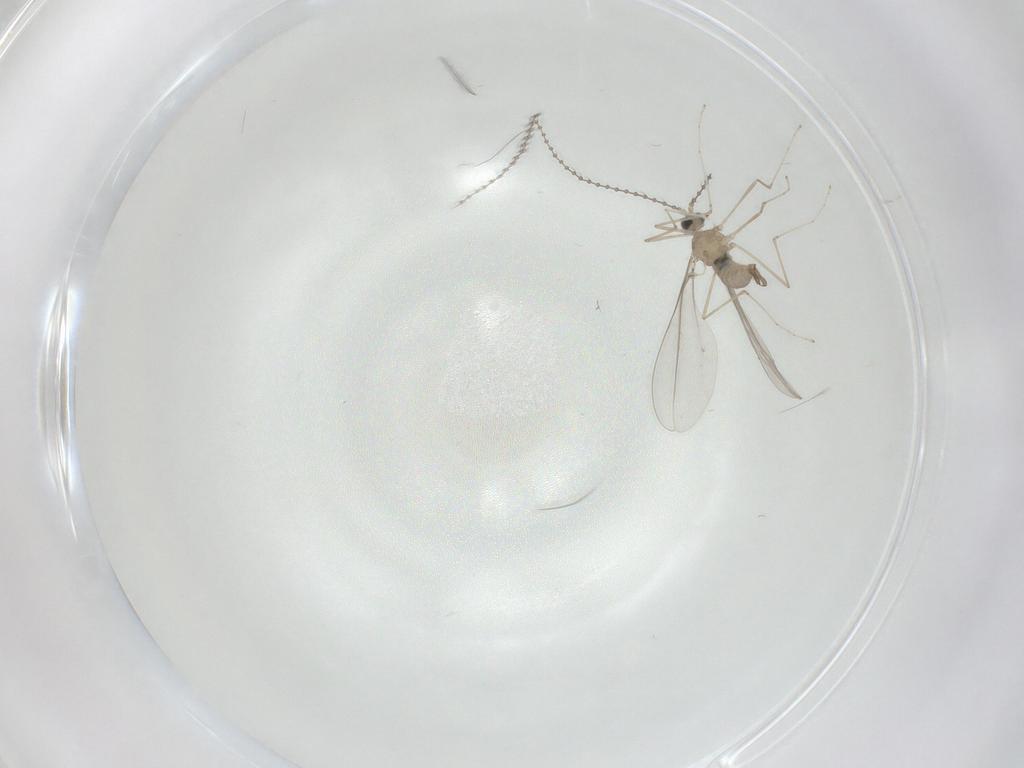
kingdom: Animalia
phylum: Arthropoda
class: Insecta
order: Diptera
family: Cecidomyiidae
